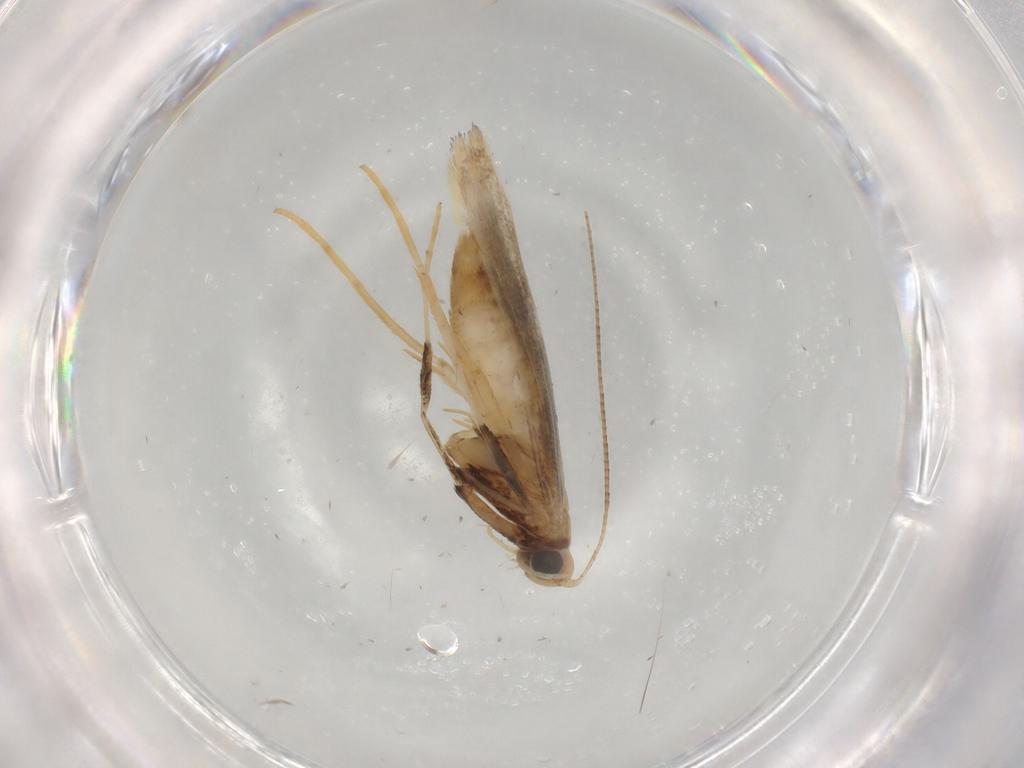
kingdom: Animalia
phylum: Arthropoda
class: Insecta
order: Lepidoptera
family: Gracillariidae
